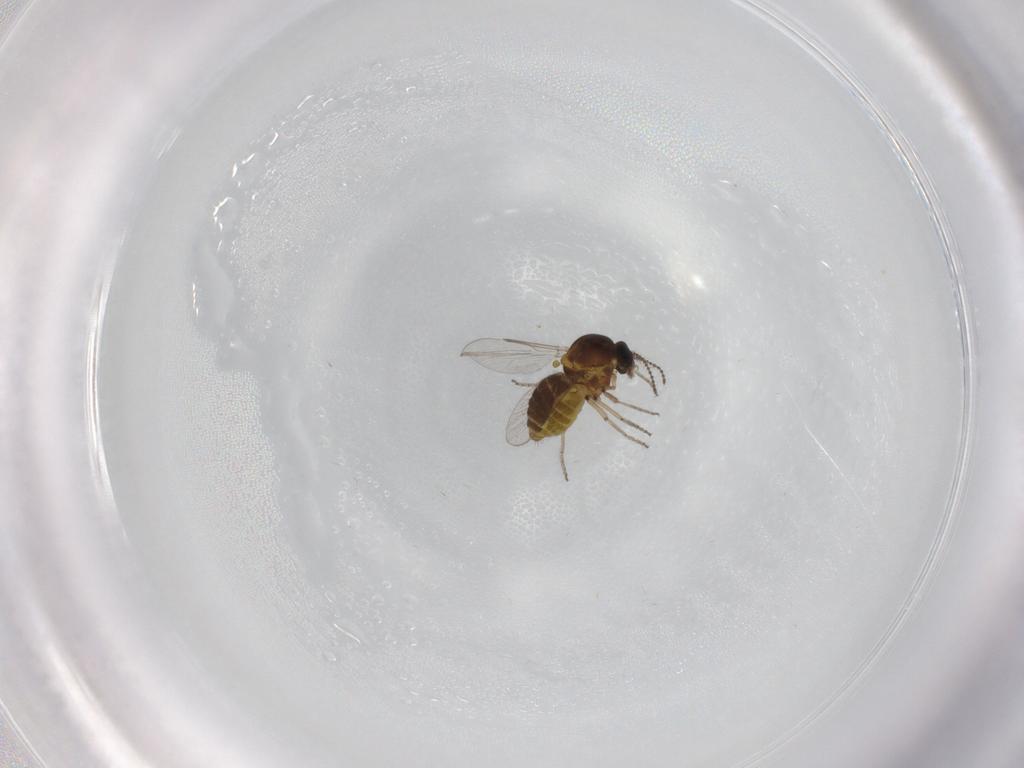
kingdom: Animalia
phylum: Arthropoda
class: Insecta
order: Diptera
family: Ceratopogonidae
